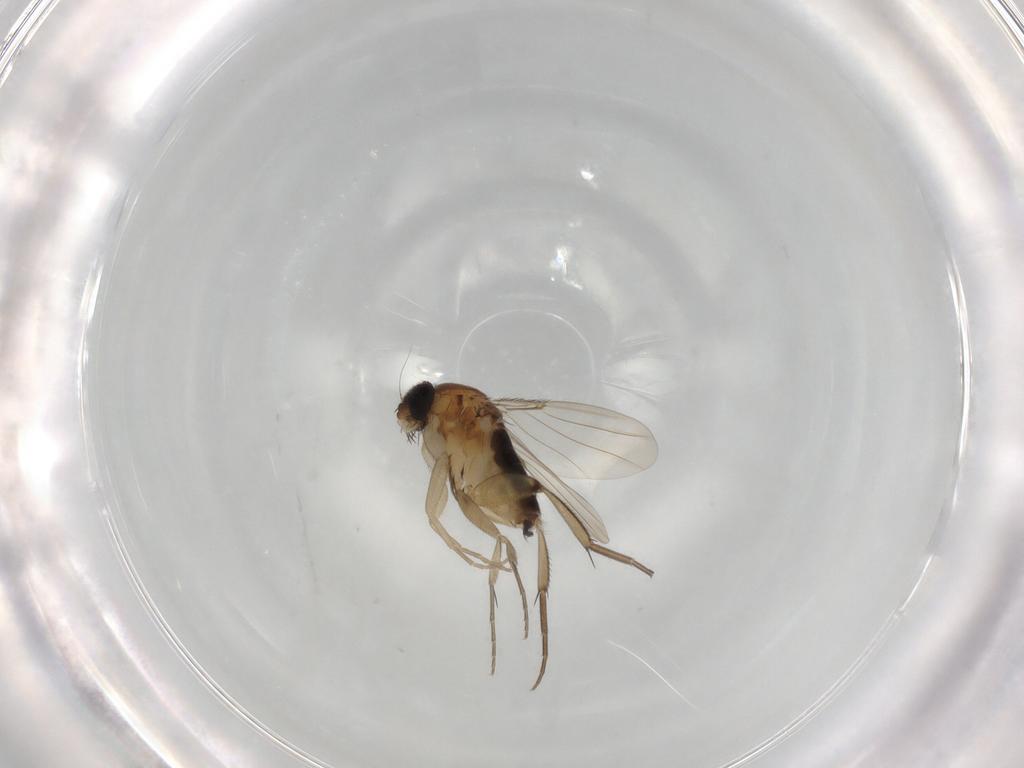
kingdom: Animalia
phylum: Arthropoda
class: Insecta
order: Diptera
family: Phoridae
